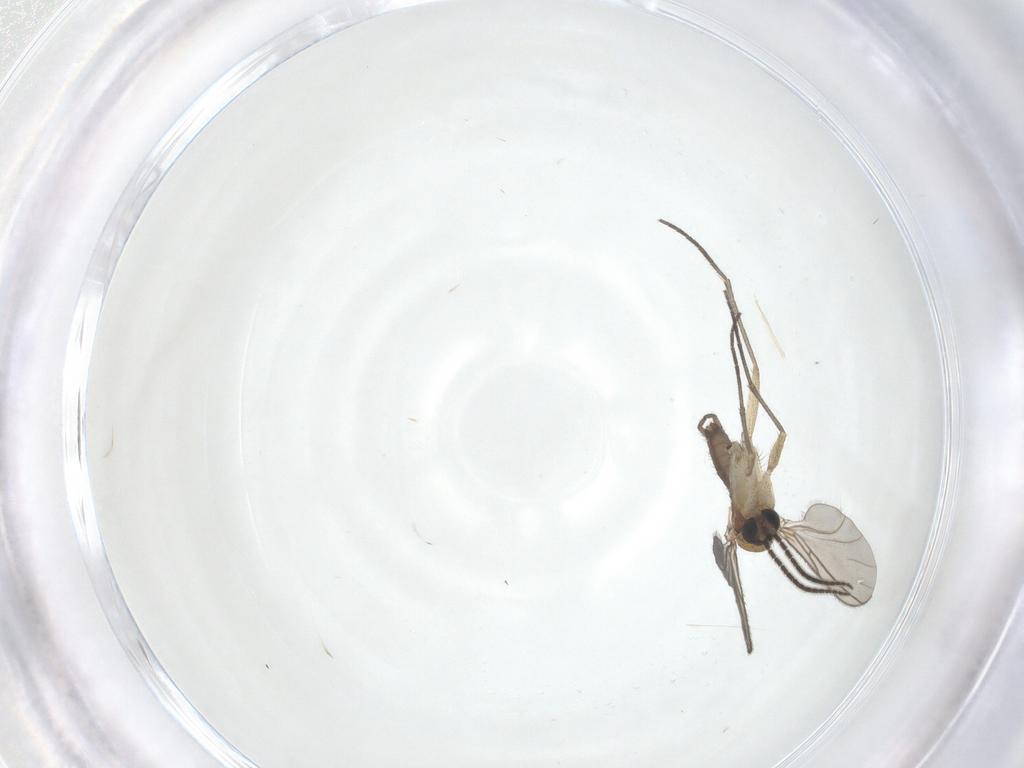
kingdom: Animalia
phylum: Arthropoda
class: Insecta
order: Diptera
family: Sciaridae
